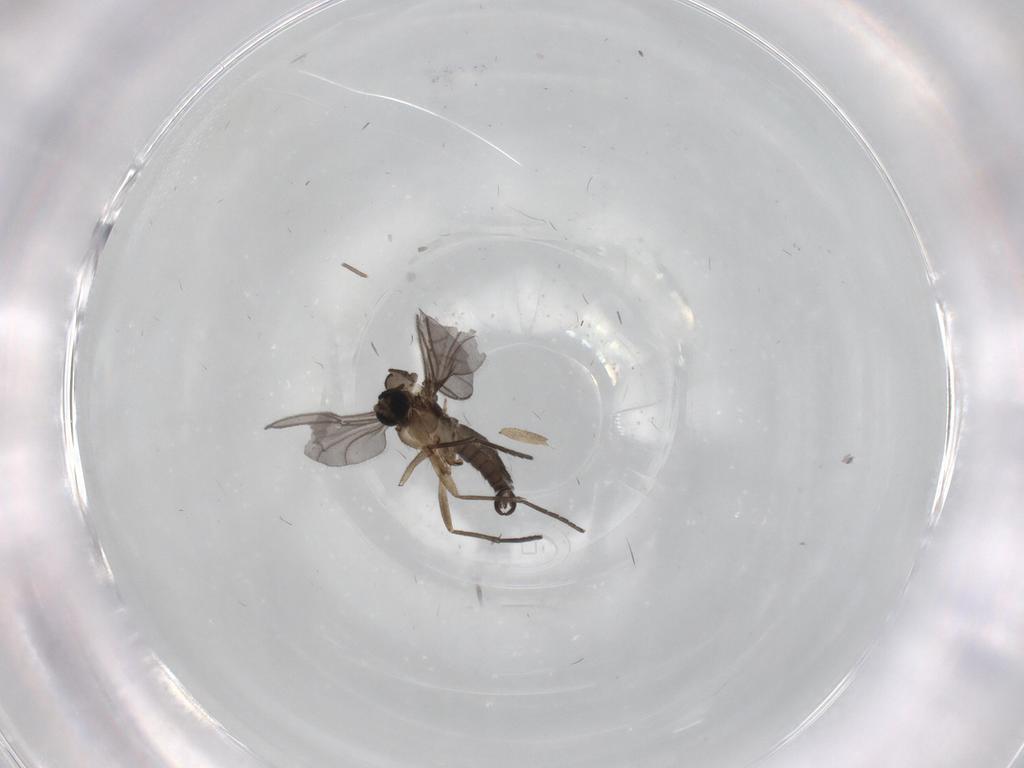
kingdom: Animalia
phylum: Arthropoda
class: Insecta
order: Diptera
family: Sciaridae
